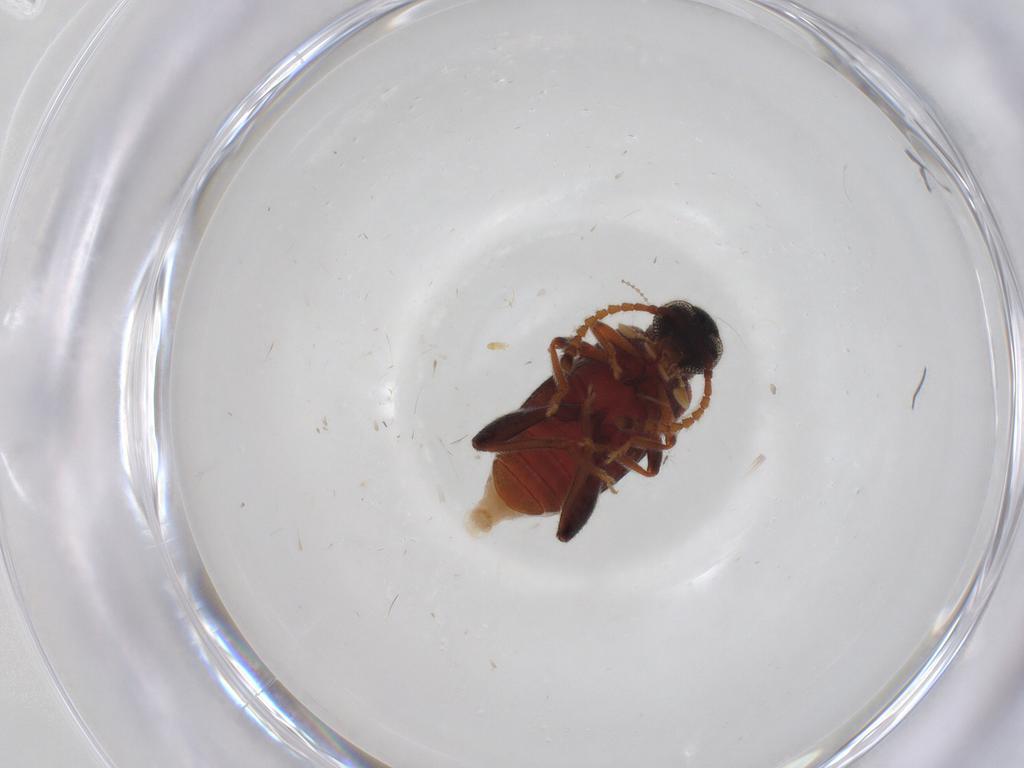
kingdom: Animalia
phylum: Arthropoda
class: Insecta
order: Coleoptera
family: Aderidae
